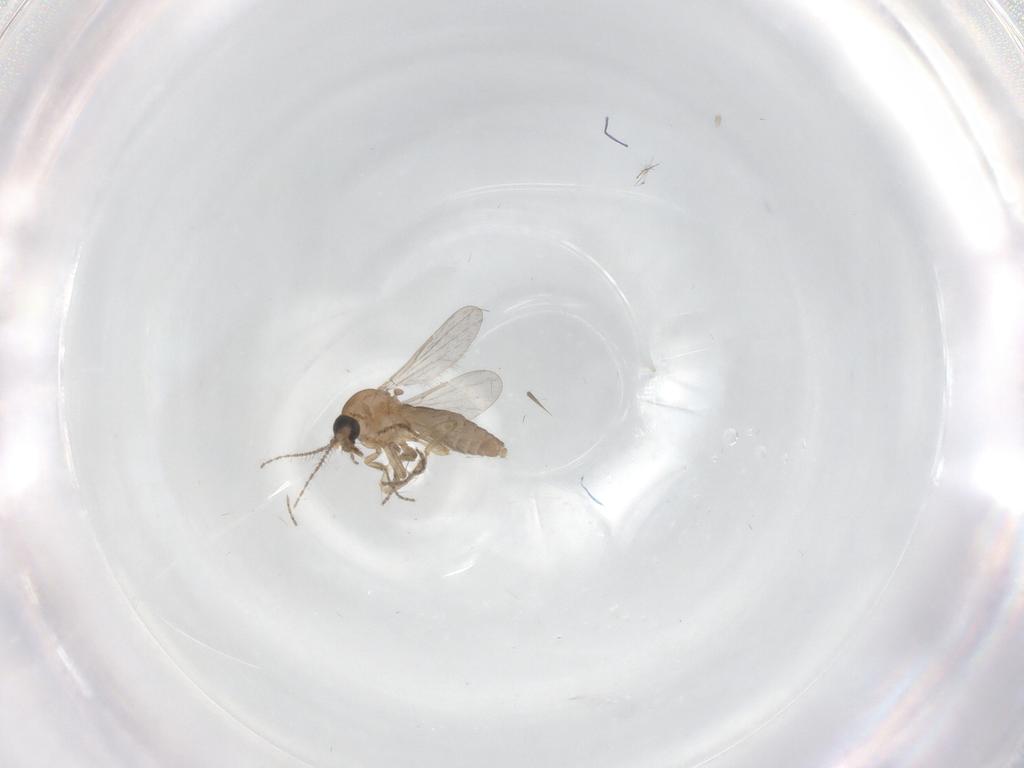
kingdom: Animalia
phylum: Arthropoda
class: Insecta
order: Diptera
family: Ceratopogonidae
